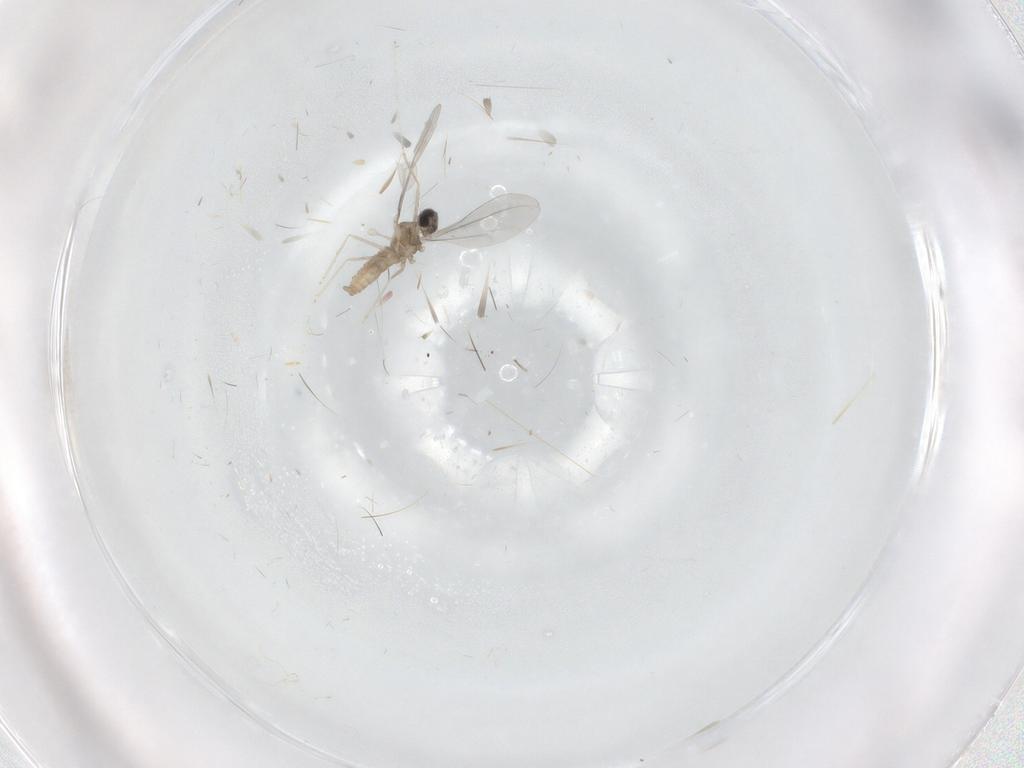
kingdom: Animalia
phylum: Arthropoda
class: Insecta
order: Diptera
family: Cecidomyiidae
